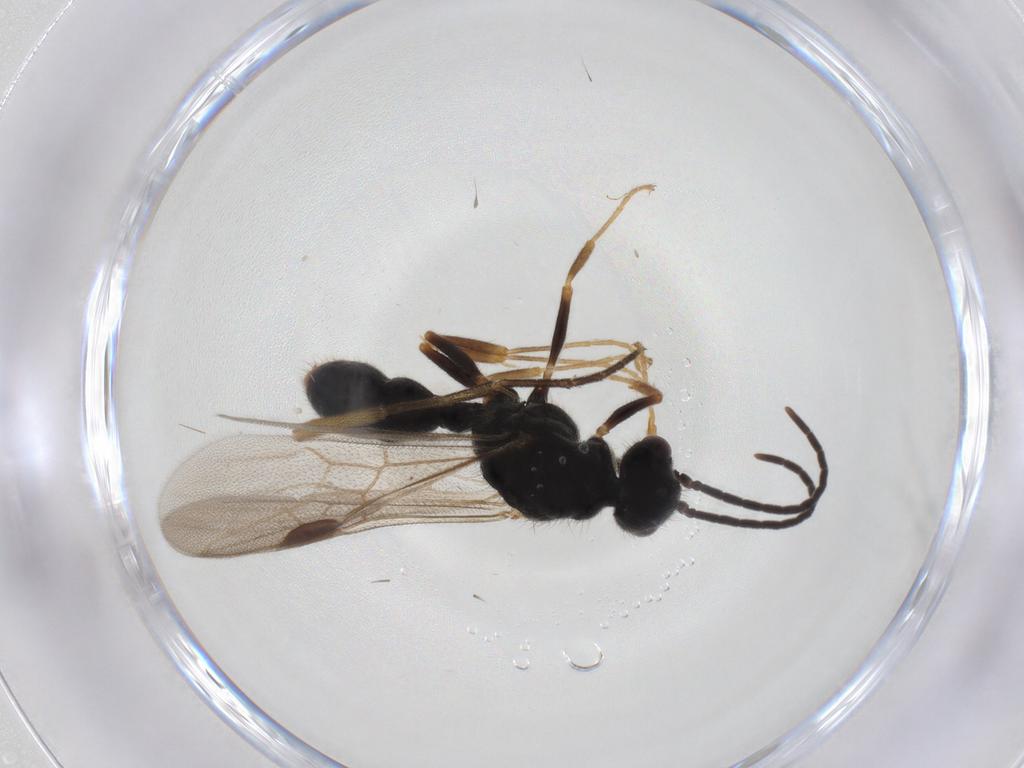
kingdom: Animalia
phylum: Arthropoda
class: Insecta
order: Hymenoptera
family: Formicidae
